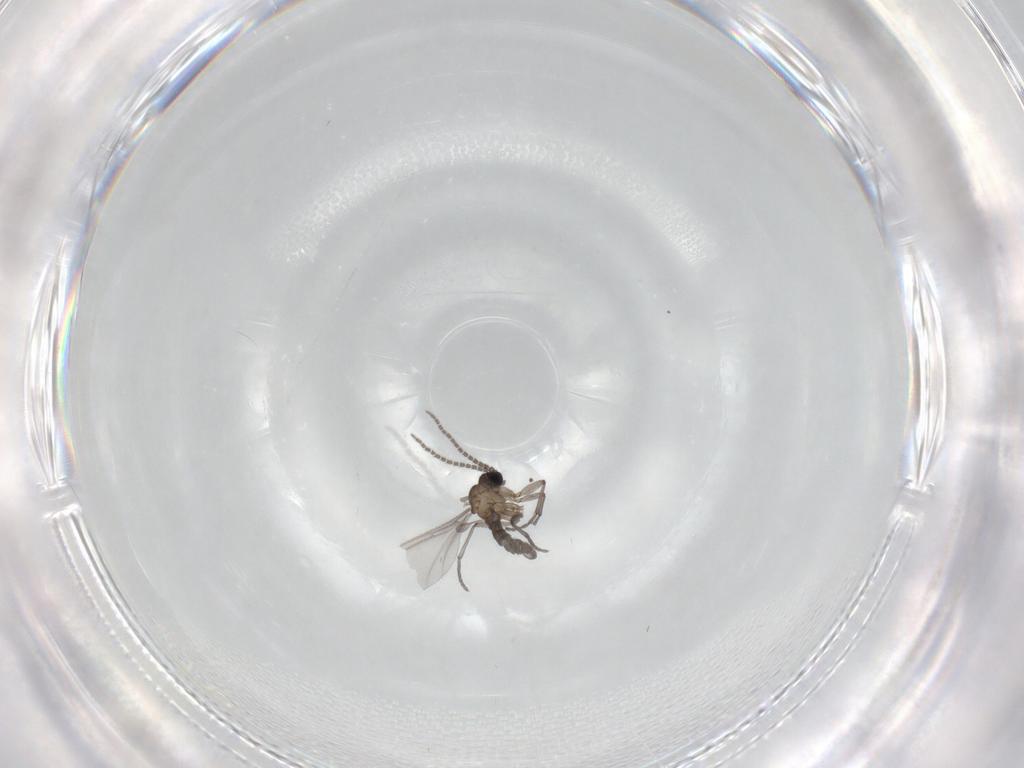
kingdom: Animalia
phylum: Arthropoda
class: Insecta
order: Diptera
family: Sciaridae
